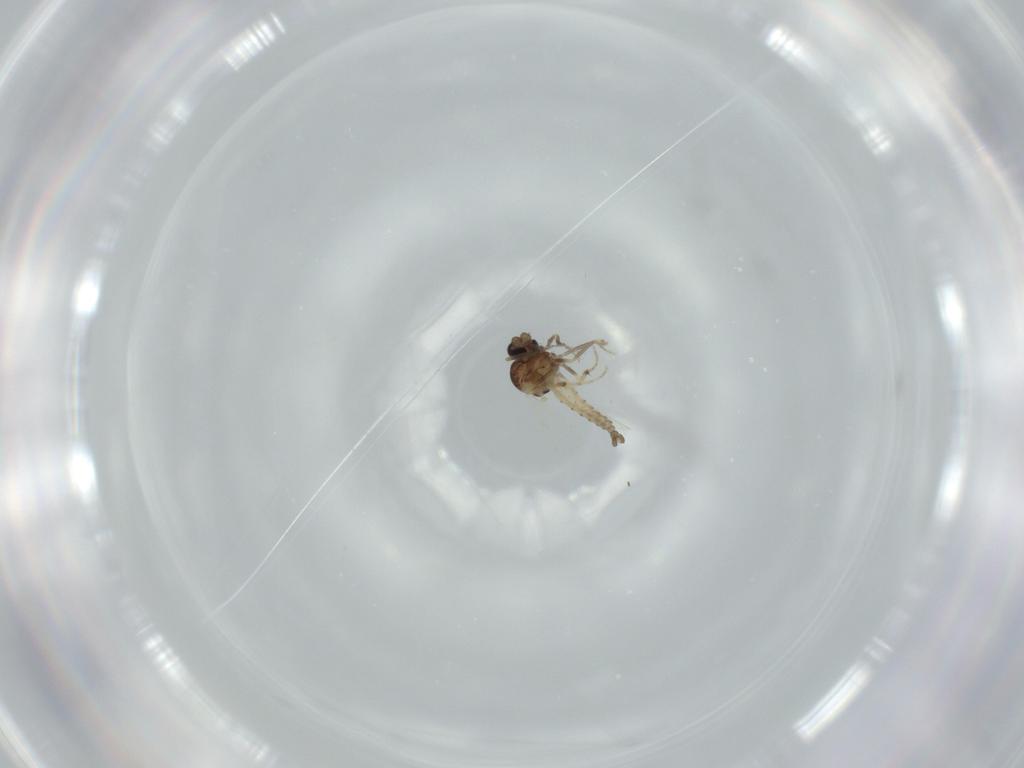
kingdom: Animalia
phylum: Arthropoda
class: Insecta
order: Diptera
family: Ceratopogonidae
